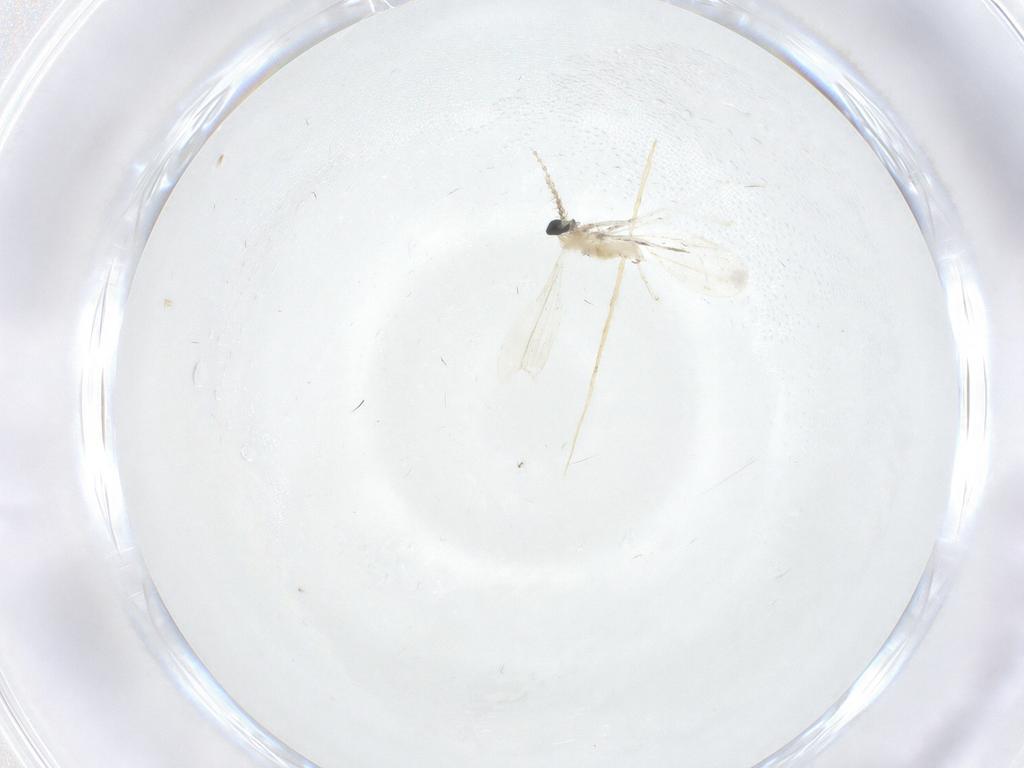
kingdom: Animalia
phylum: Arthropoda
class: Insecta
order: Diptera
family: Cecidomyiidae
